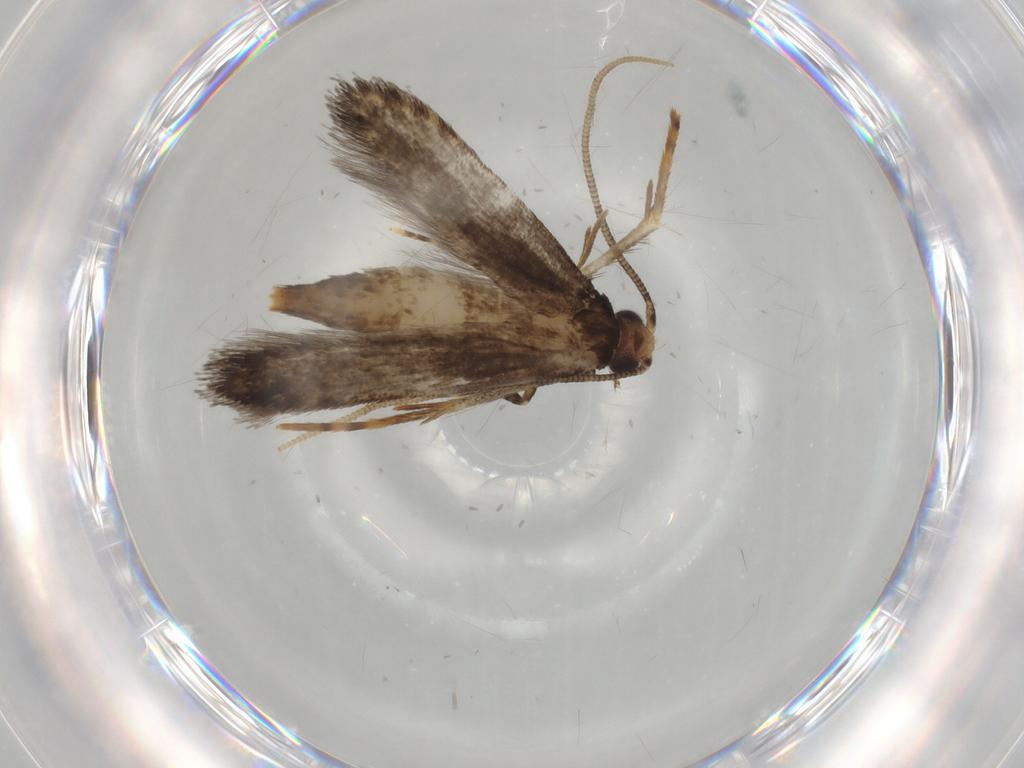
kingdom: Animalia
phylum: Arthropoda
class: Insecta
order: Lepidoptera
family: Tineidae
